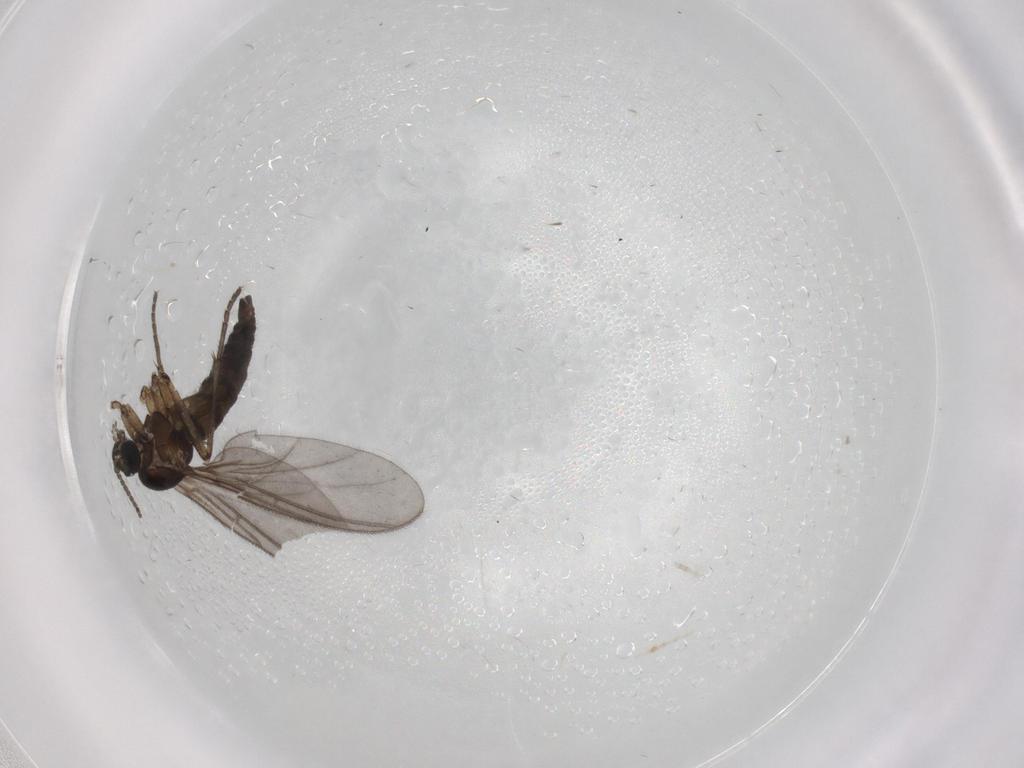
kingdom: Animalia
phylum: Arthropoda
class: Insecta
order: Diptera
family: Sciaridae
